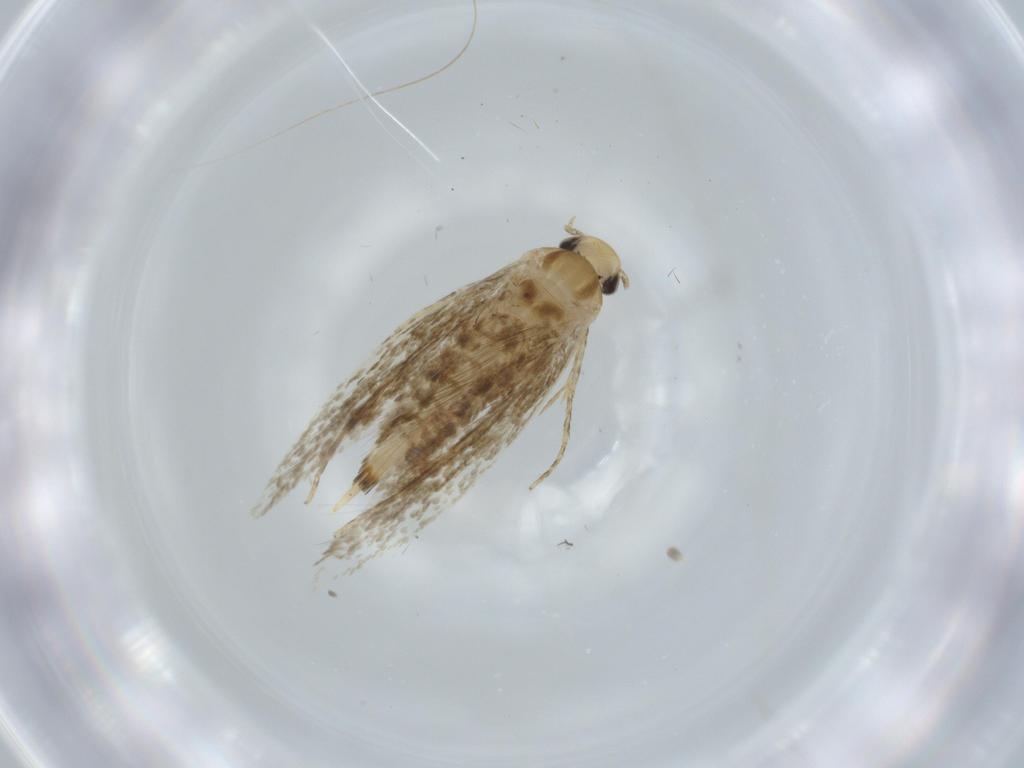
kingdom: Animalia
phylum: Arthropoda
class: Insecta
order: Lepidoptera
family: Tineidae
